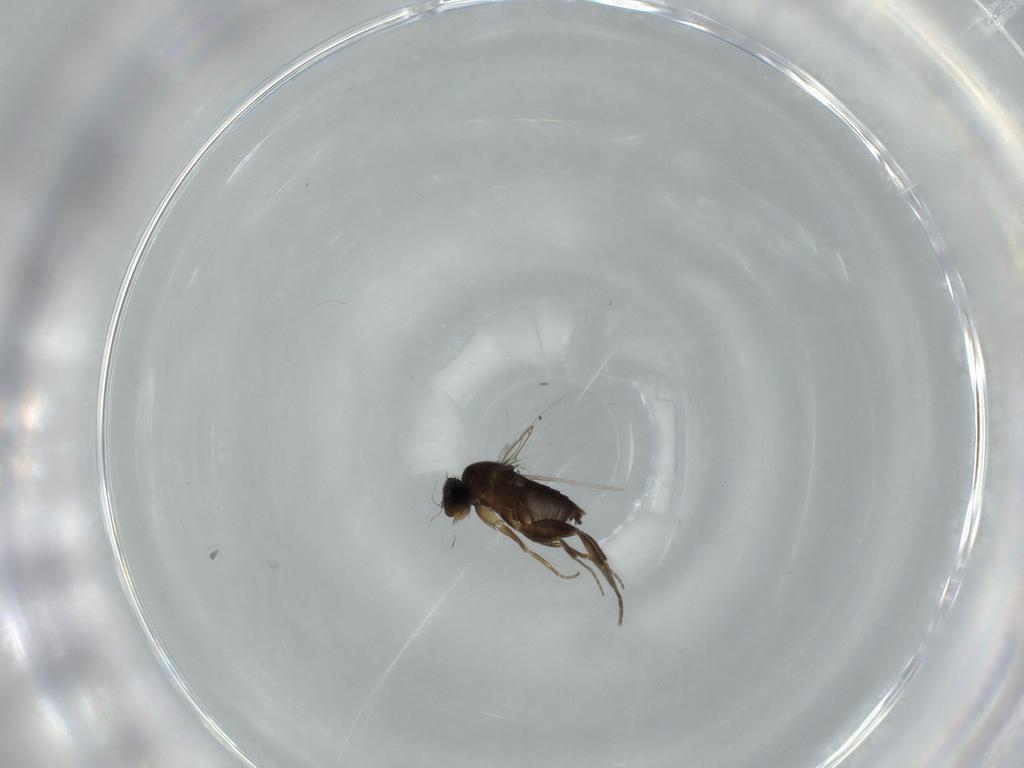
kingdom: Animalia
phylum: Arthropoda
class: Insecta
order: Diptera
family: Phoridae
